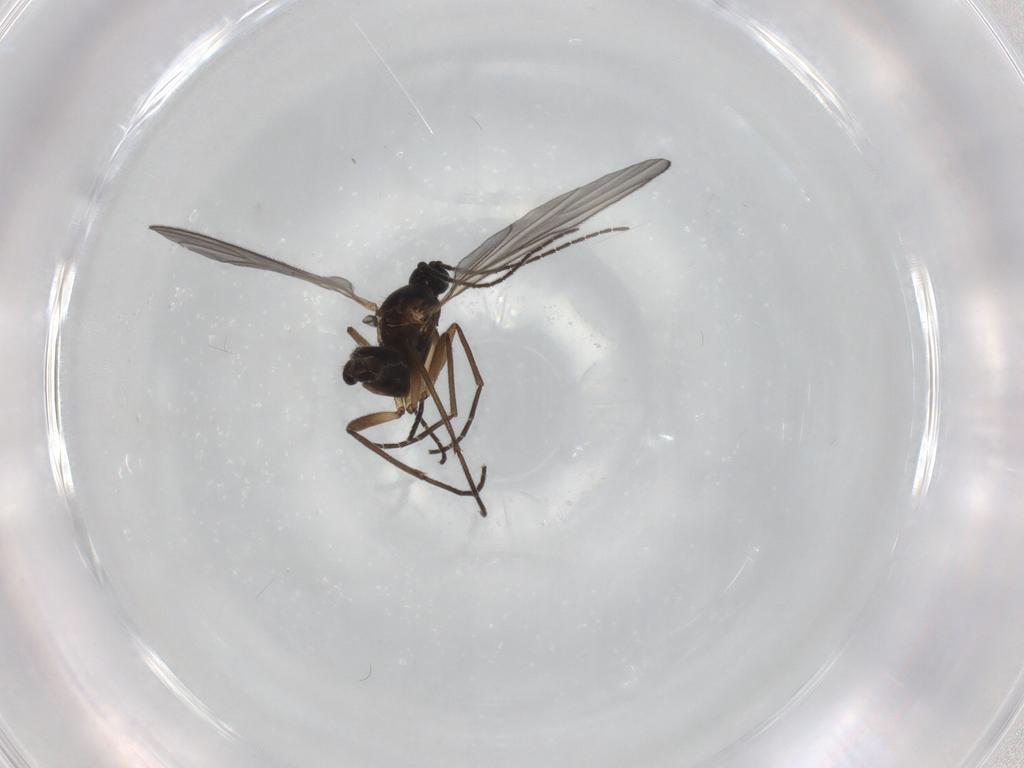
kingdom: Animalia
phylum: Arthropoda
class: Insecta
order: Diptera
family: Sciaridae
